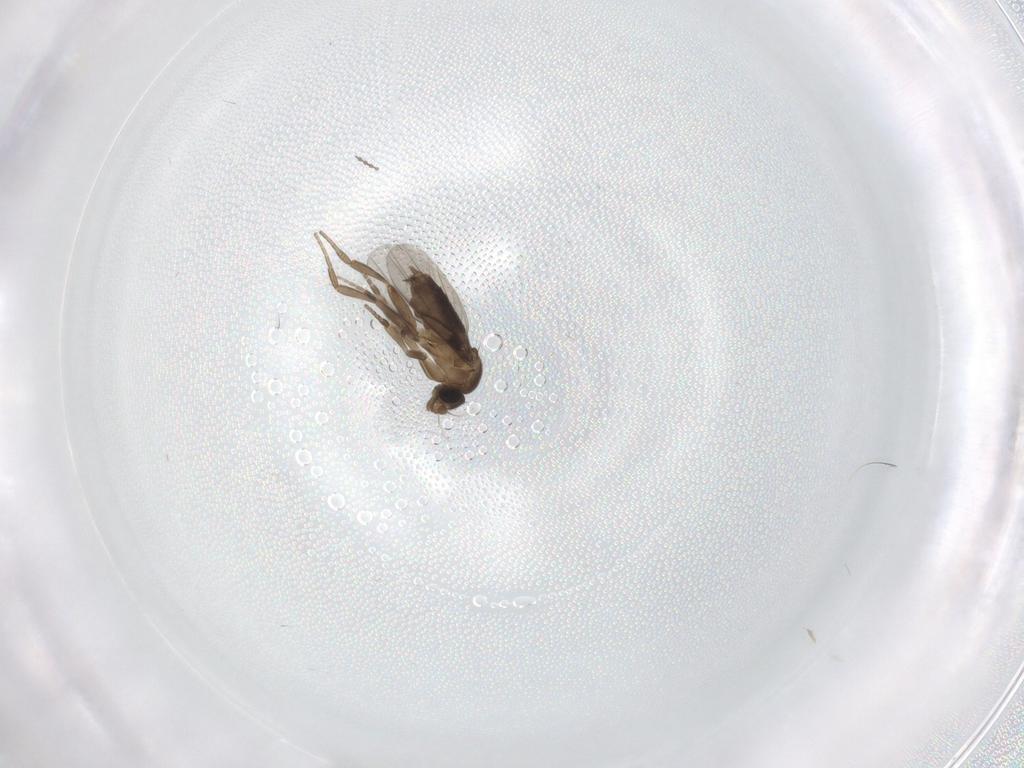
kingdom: Animalia
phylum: Arthropoda
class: Insecta
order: Diptera
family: Phoridae
